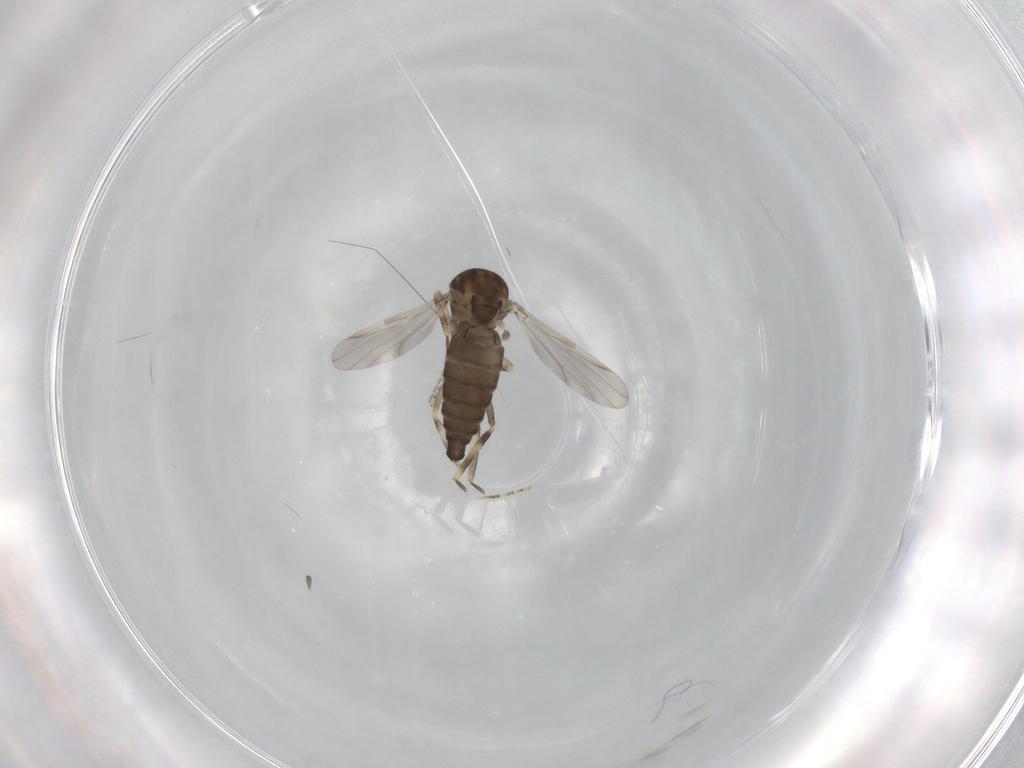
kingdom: Animalia
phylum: Arthropoda
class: Insecta
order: Diptera
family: Ceratopogonidae
